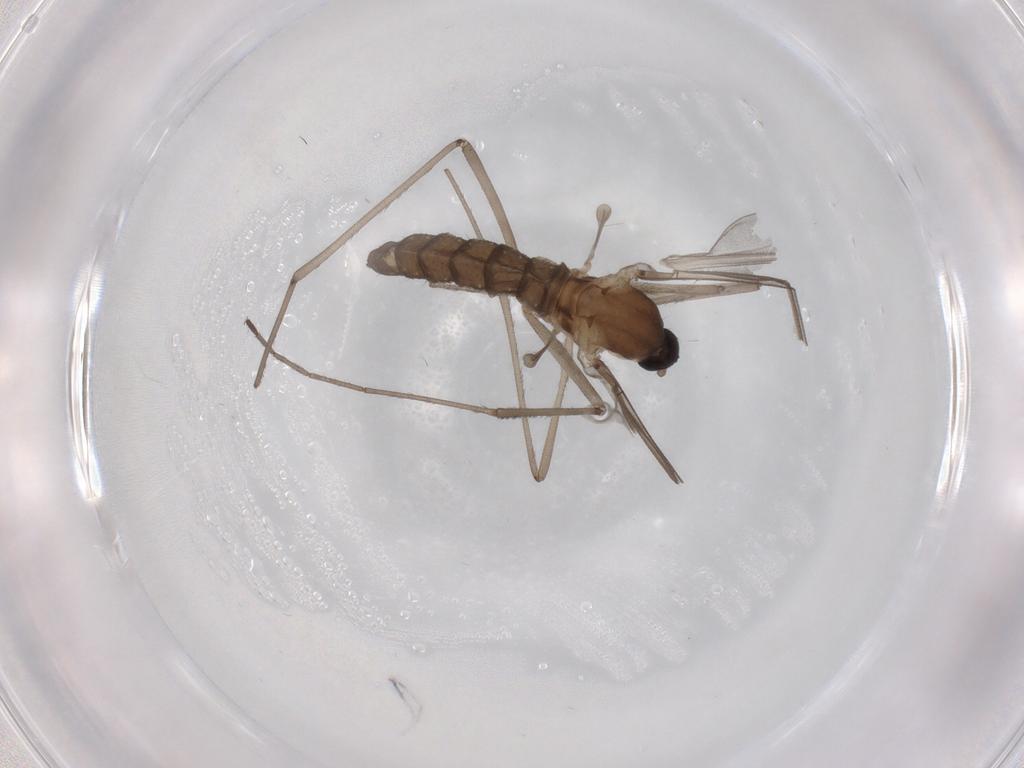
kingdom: Animalia
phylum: Arthropoda
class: Insecta
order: Diptera
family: Cecidomyiidae
